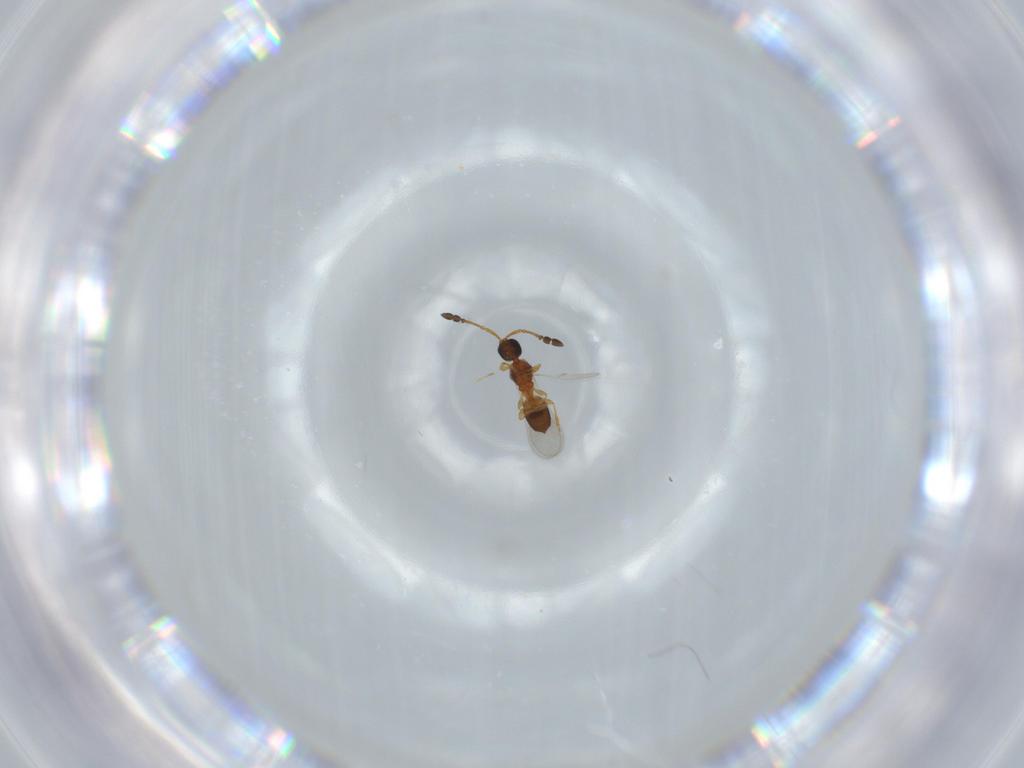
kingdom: Animalia
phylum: Arthropoda
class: Insecta
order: Hymenoptera
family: Diapriidae
